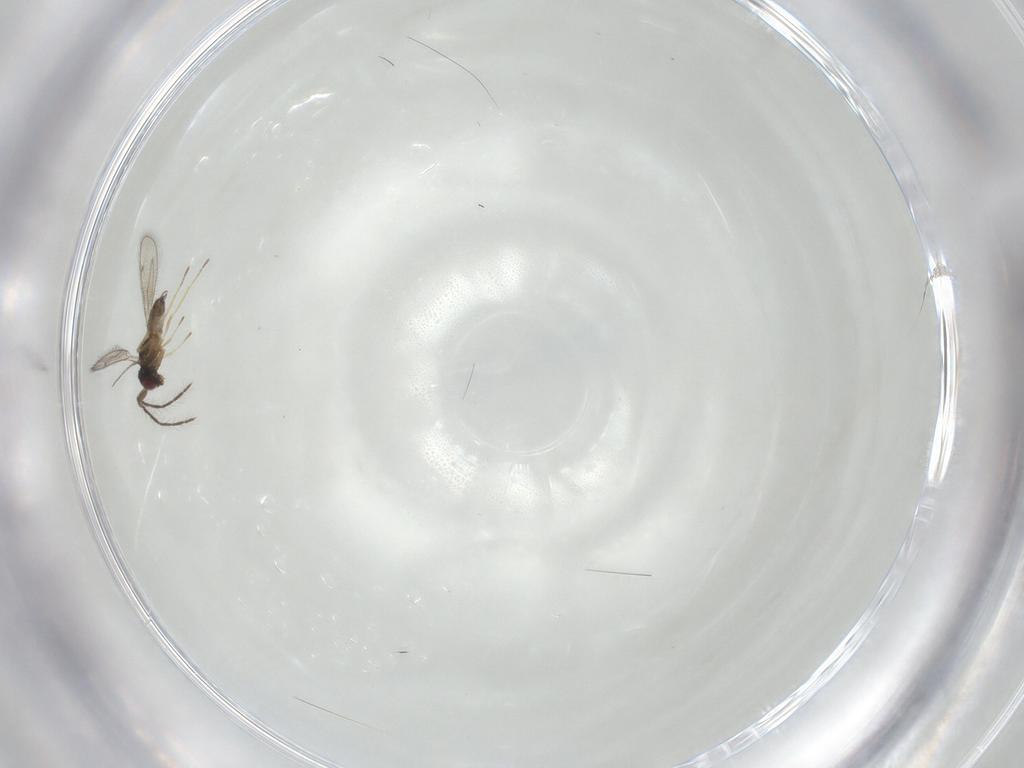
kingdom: Animalia
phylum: Arthropoda
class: Insecta
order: Hymenoptera
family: Eulophidae
